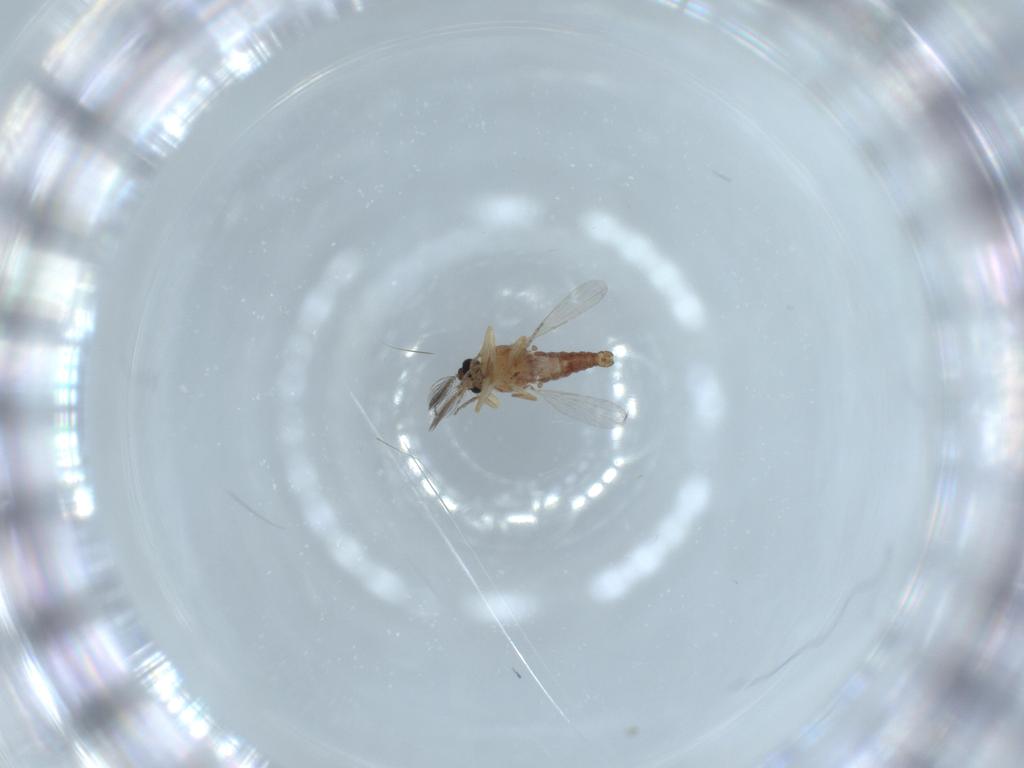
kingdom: Animalia
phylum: Arthropoda
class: Insecta
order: Diptera
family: Ceratopogonidae
